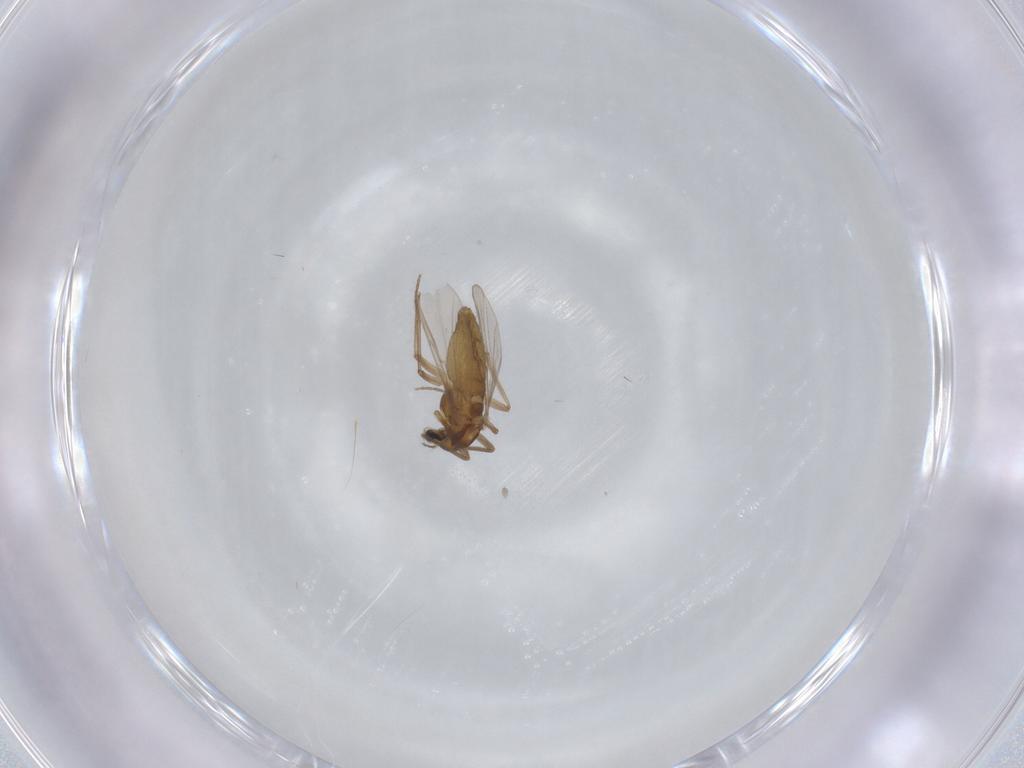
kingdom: Animalia
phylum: Arthropoda
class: Insecta
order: Diptera
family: Chironomidae
